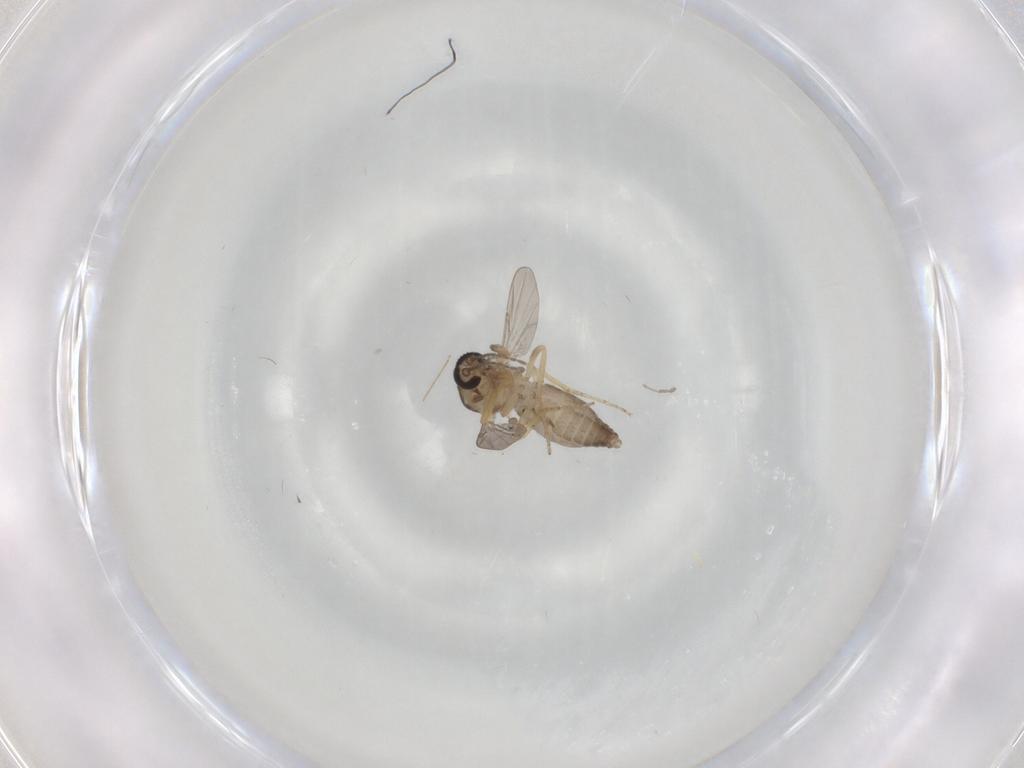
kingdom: Animalia
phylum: Arthropoda
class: Insecta
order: Diptera
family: Ceratopogonidae
